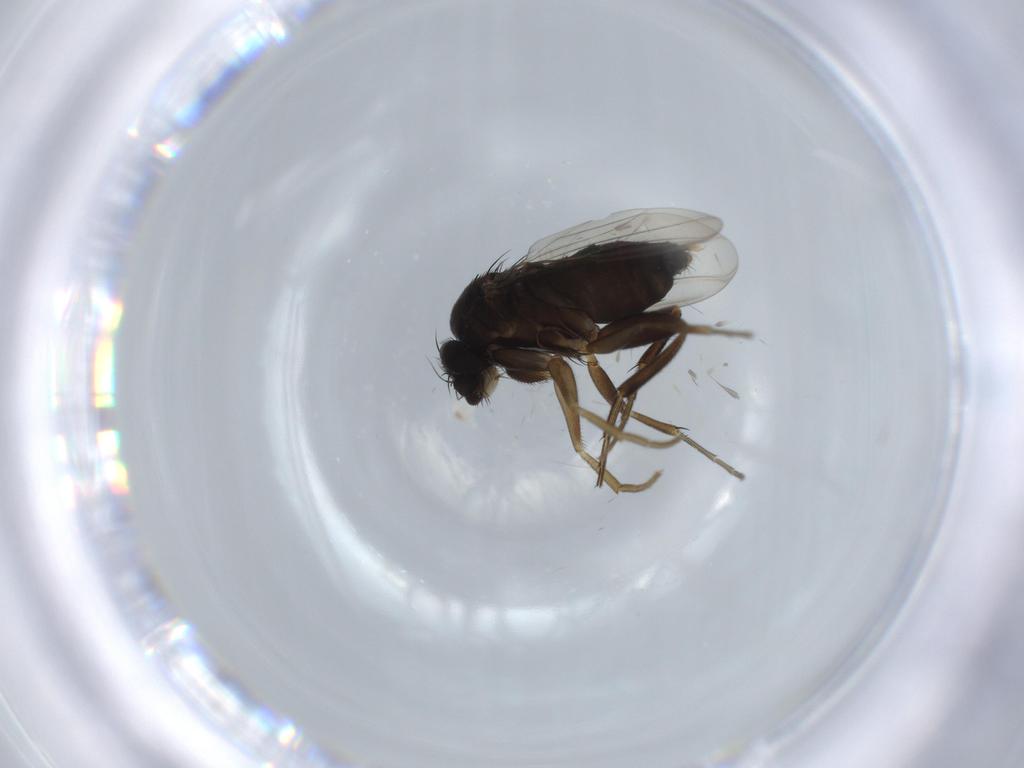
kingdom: Animalia
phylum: Arthropoda
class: Insecta
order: Diptera
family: Phoridae
